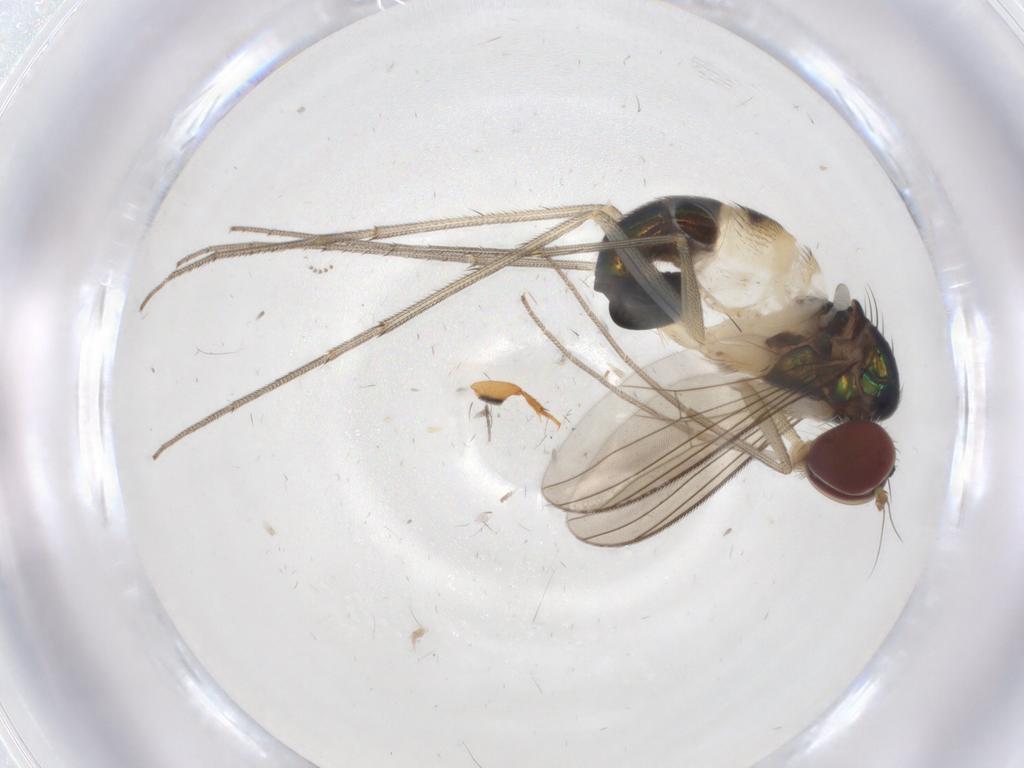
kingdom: Animalia
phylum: Arthropoda
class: Insecta
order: Diptera
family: Dolichopodidae
